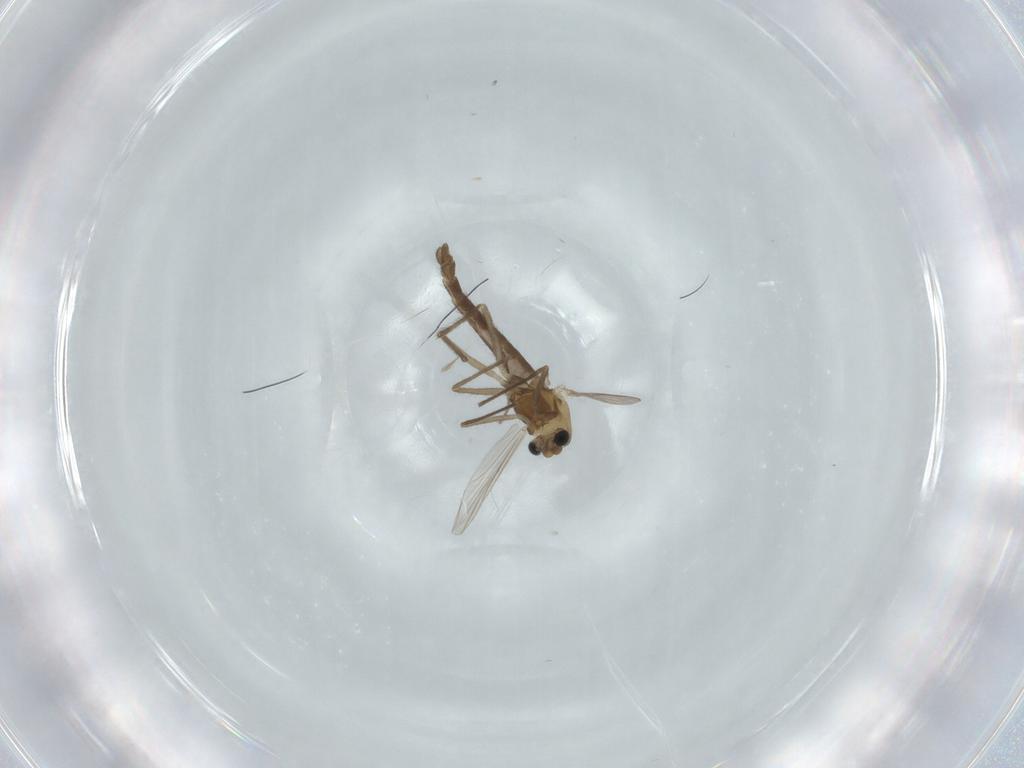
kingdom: Animalia
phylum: Arthropoda
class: Insecta
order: Diptera
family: Chironomidae
